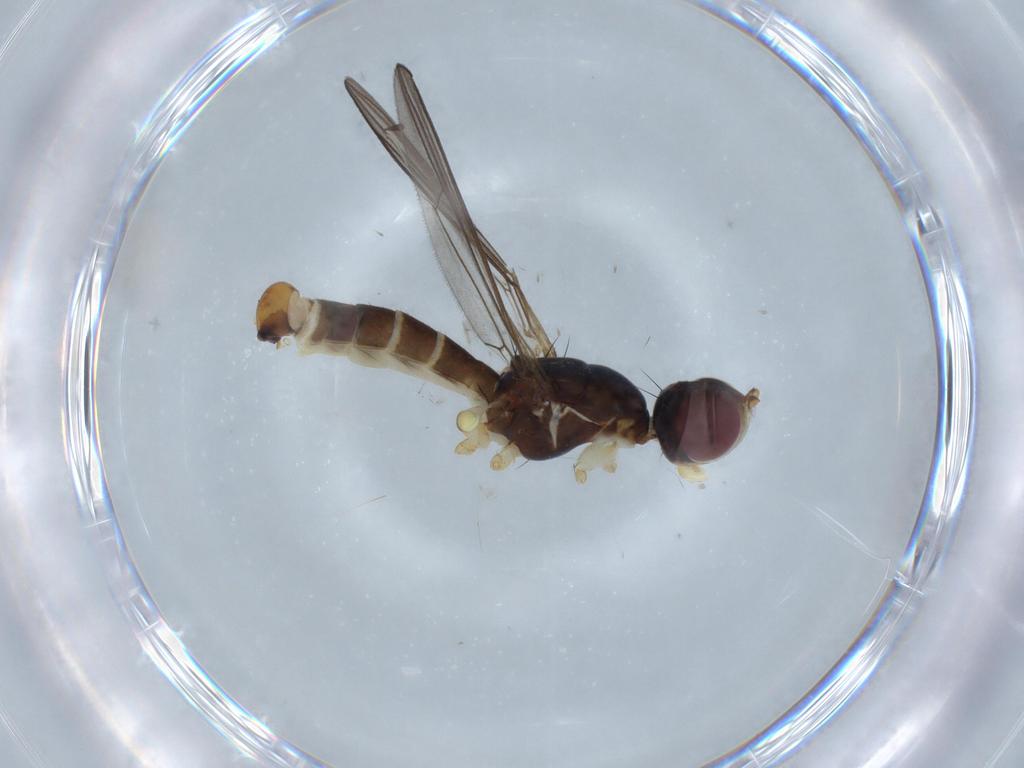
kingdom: Animalia
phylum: Arthropoda
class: Insecta
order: Diptera
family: Micropezidae
